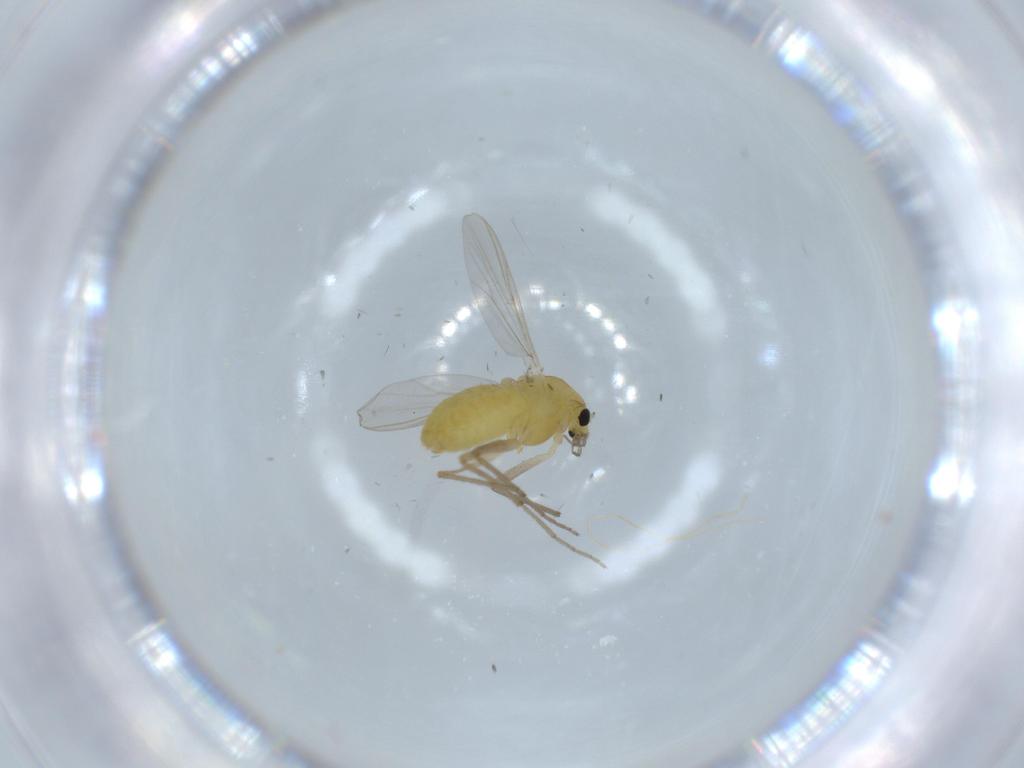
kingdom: Animalia
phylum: Arthropoda
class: Insecta
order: Diptera
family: Chironomidae
